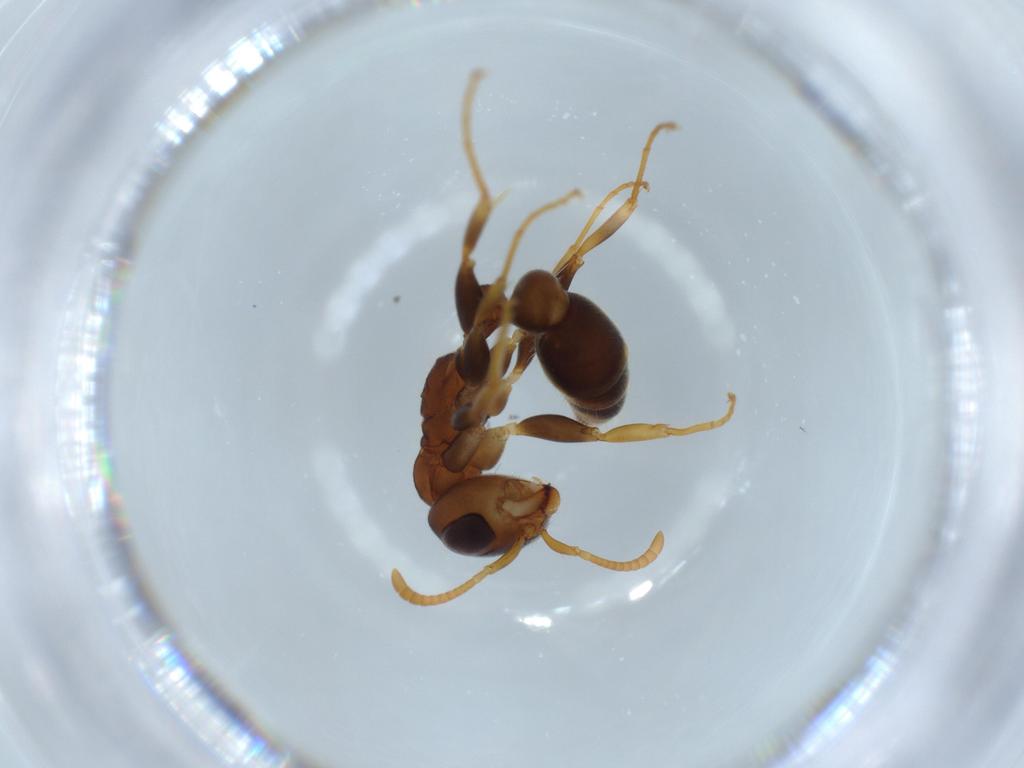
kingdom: Animalia
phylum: Arthropoda
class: Insecta
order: Hymenoptera
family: Formicidae
